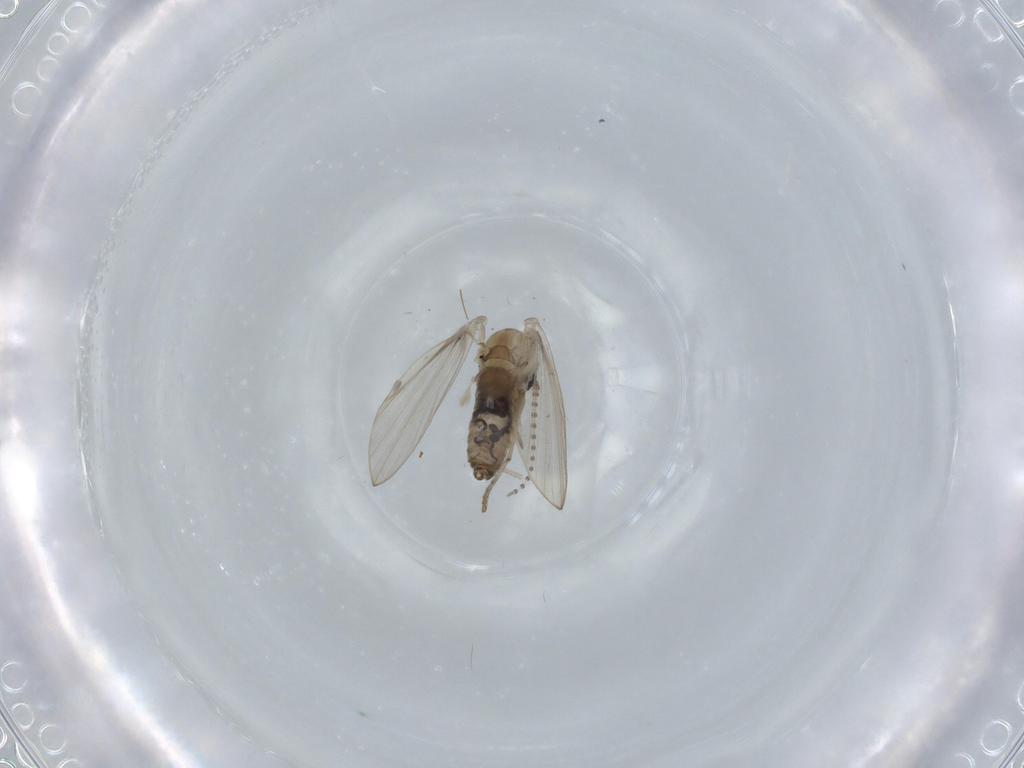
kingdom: Animalia
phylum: Arthropoda
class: Insecta
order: Diptera
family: Psychodidae
